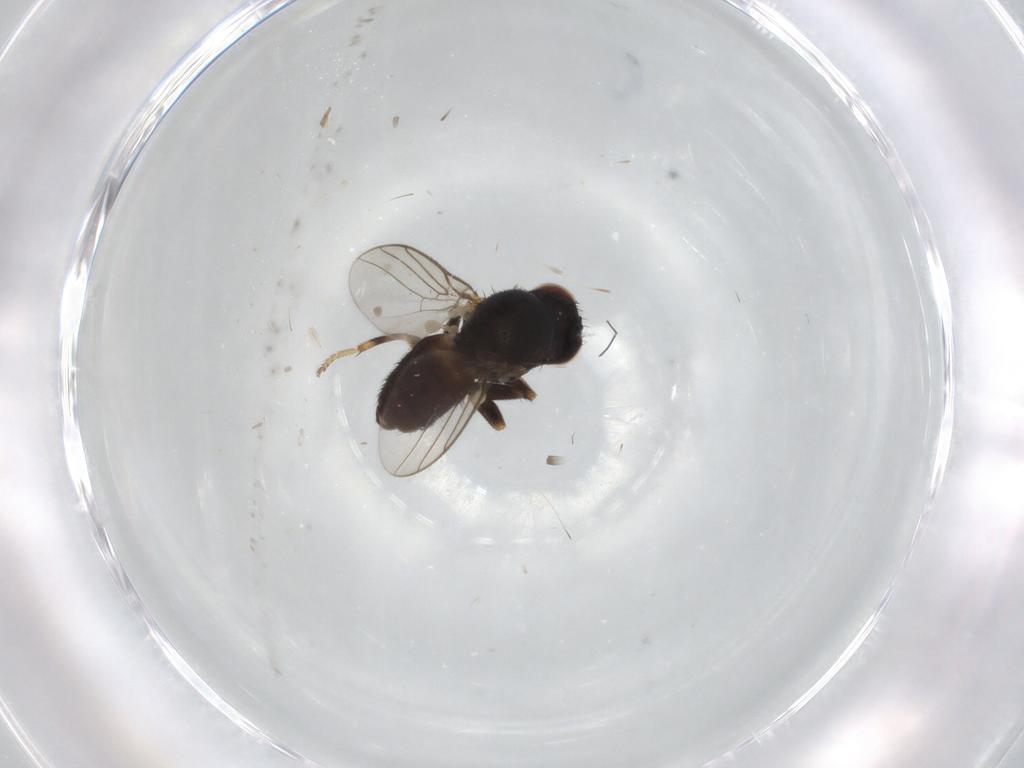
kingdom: Animalia
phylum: Arthropoda
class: Insecta
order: Diptera
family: Chloropidae
